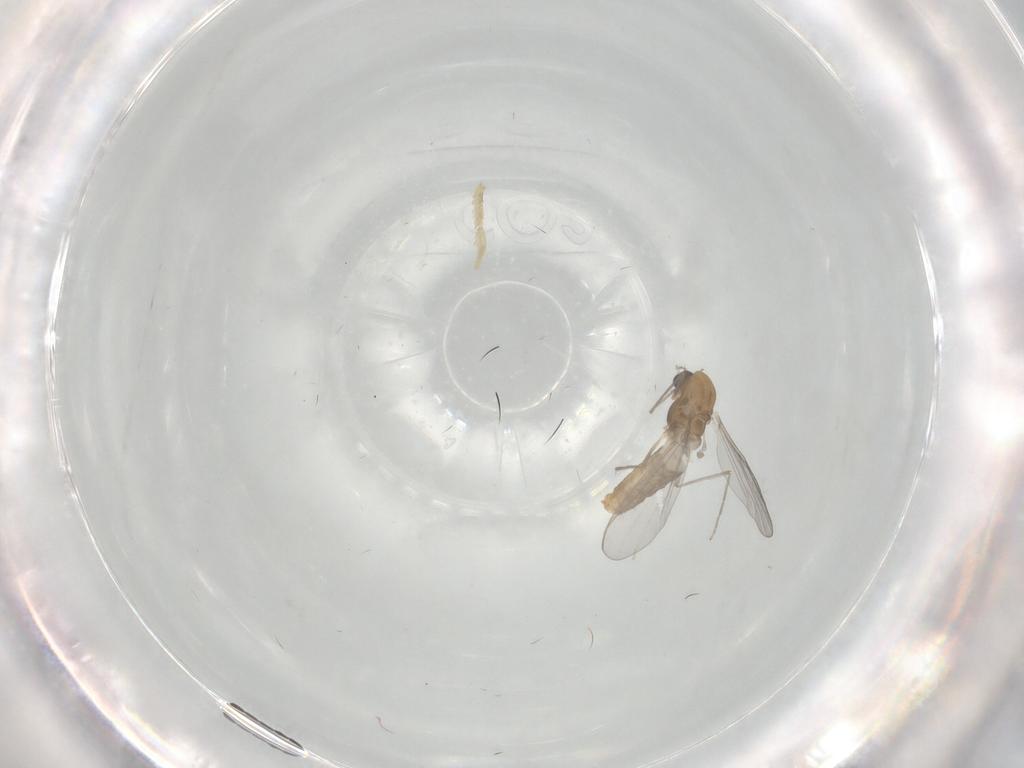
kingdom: Animalia
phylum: Arthropoda
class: Insecta
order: Diptera
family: Chironomidae
